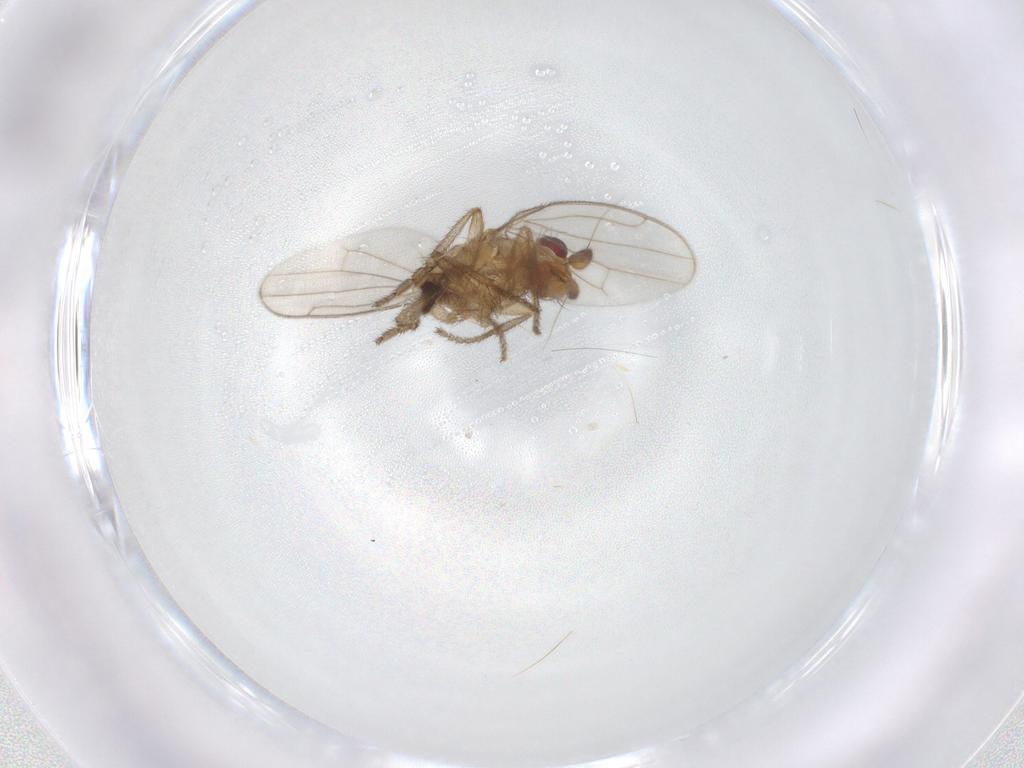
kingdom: Animalia
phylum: Arthropoda
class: Insecta
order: Diptera
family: Sphaeroceridae
